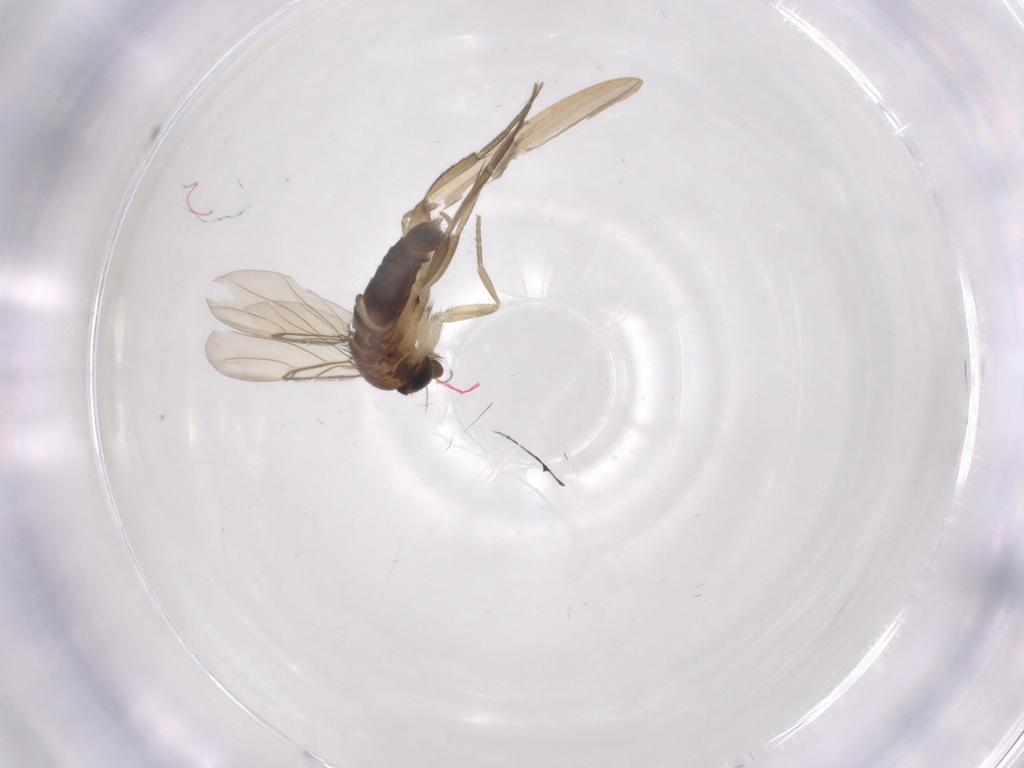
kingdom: Animalia
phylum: Arthropoda
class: Insecta
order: Diptera
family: Phoridae
